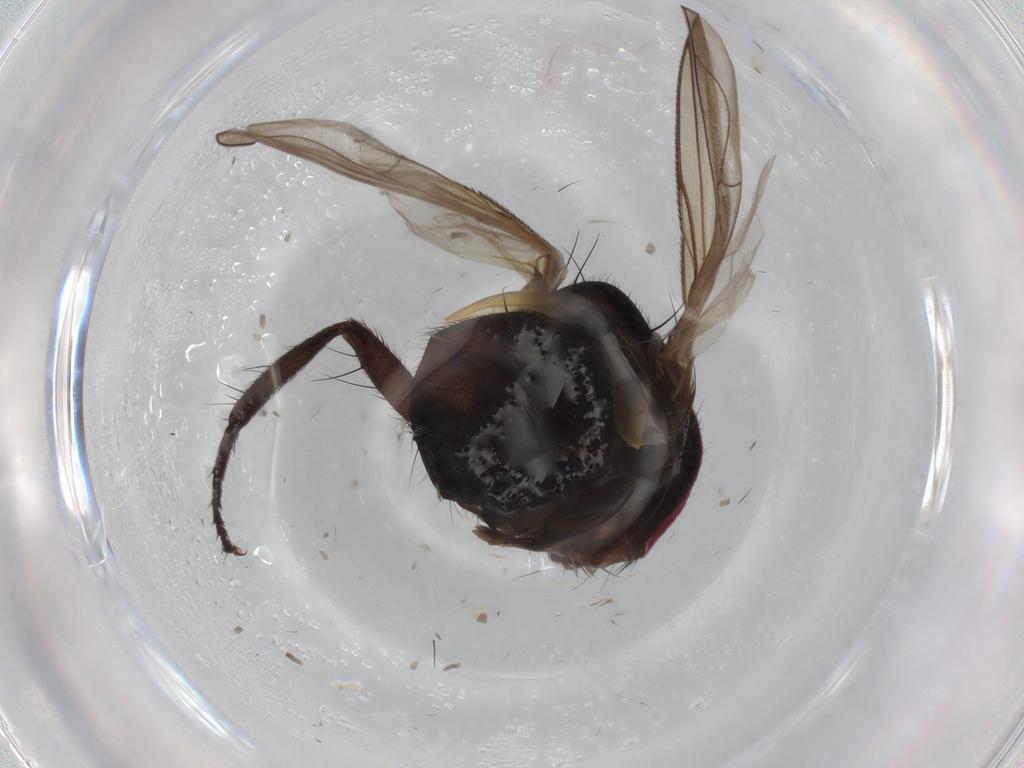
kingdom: Animalia
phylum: Arthropoda
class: Insecta
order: Diptera
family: Tachinidae
